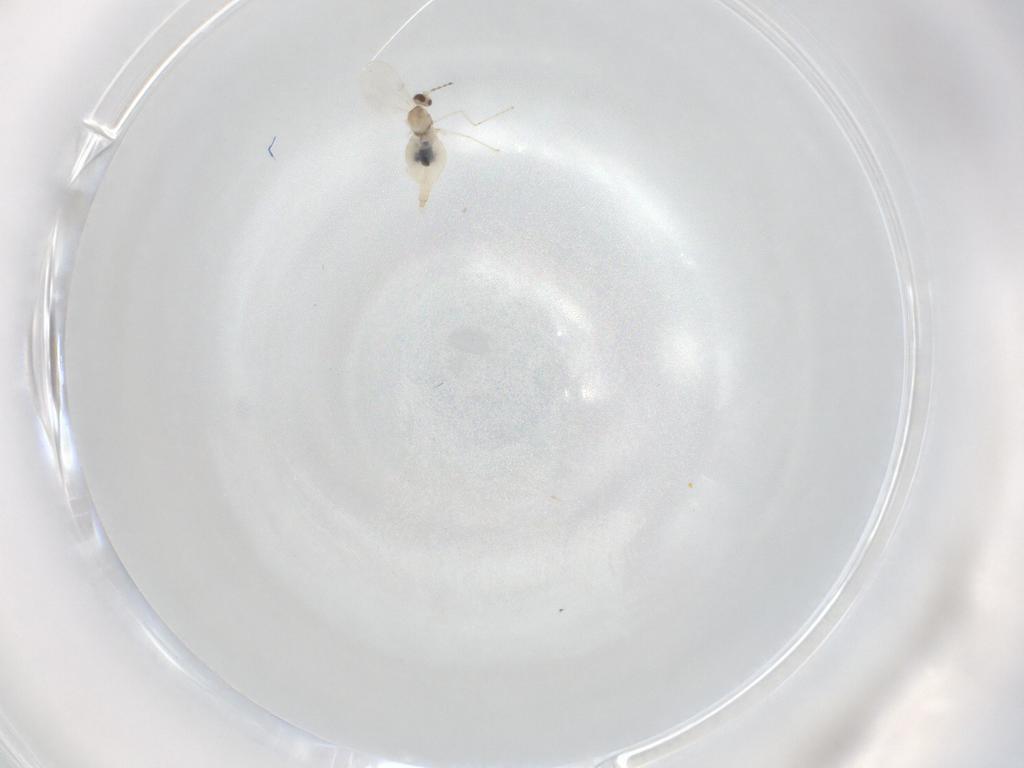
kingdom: Animalia
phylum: Arthropoda
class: Insecta
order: Diptera
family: Cecidomyiidae
